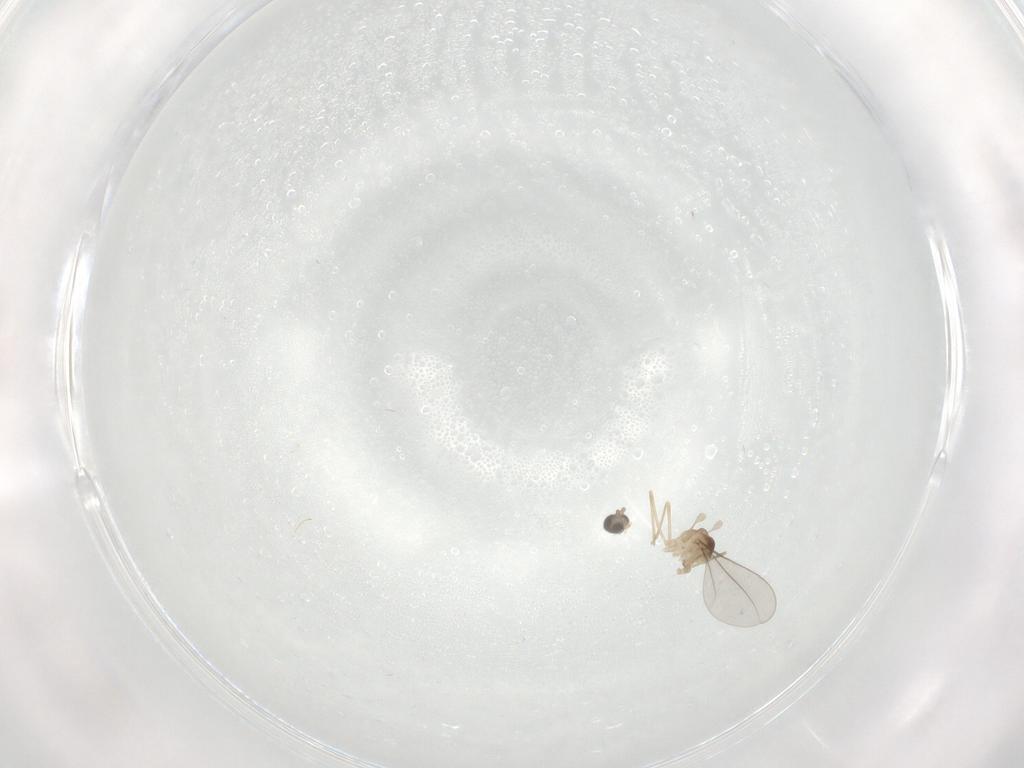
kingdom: Animalia
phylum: Arthropoda
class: Insecta
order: Diptera
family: Cecidomyiidae
